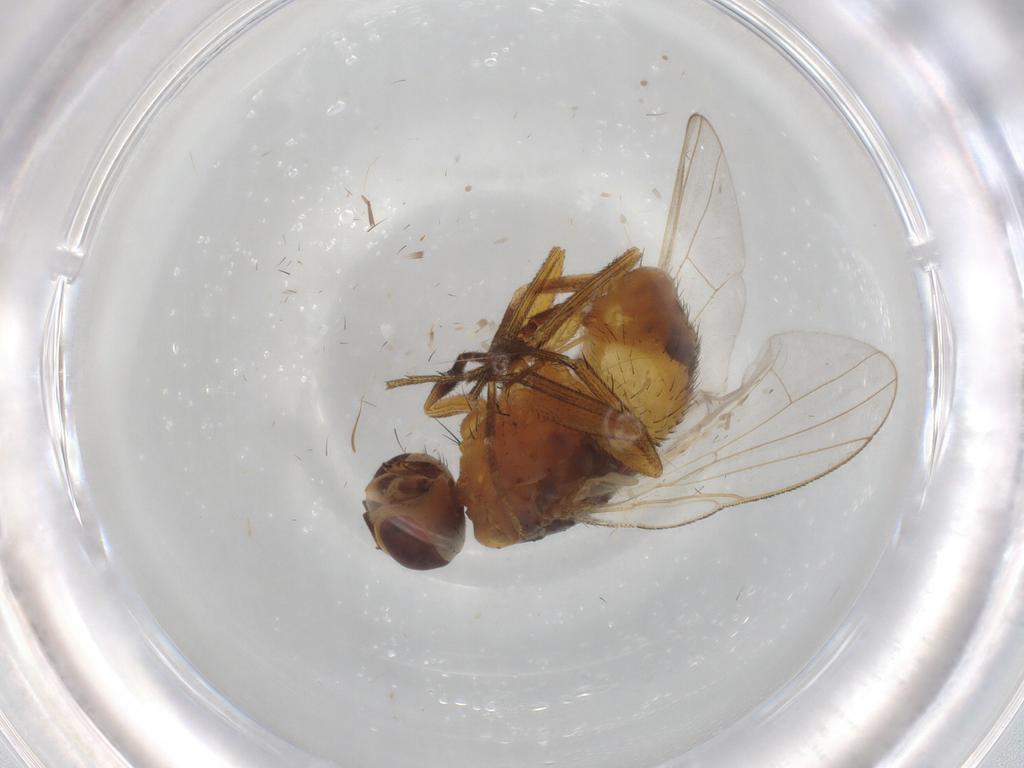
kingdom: Animalia
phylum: Arthropoda
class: Insecta
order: Diptera
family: Muscidae
